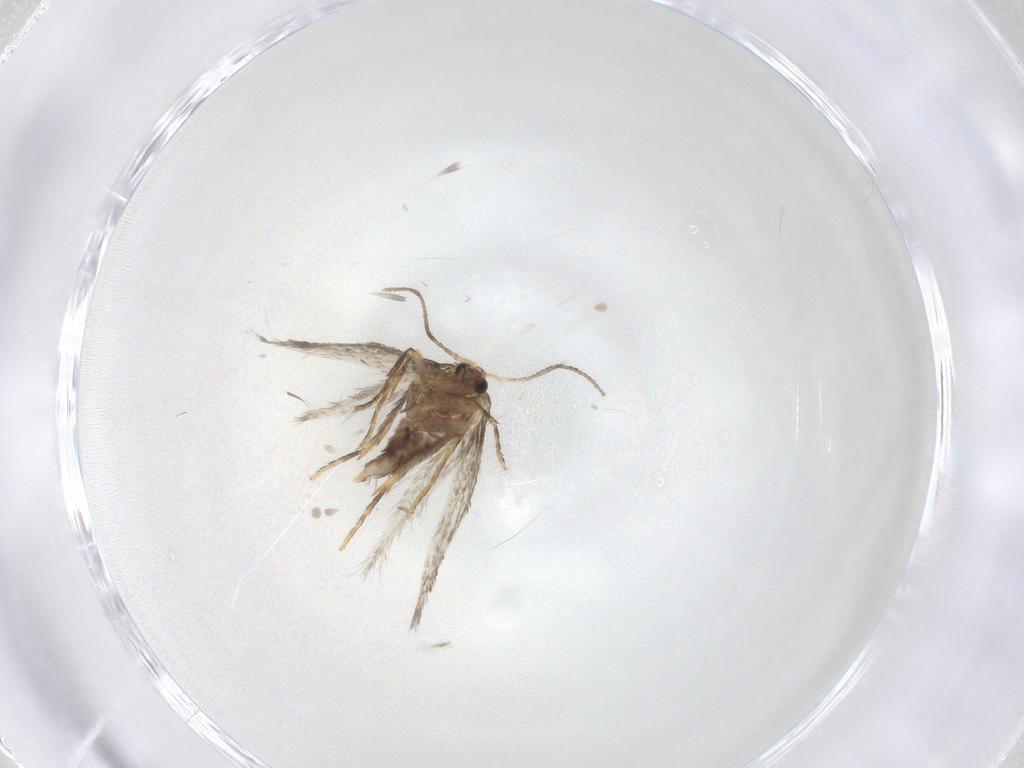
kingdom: Animalia
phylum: Arthropoda
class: Insecta
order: Lepidoptera
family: Nepticulidae
